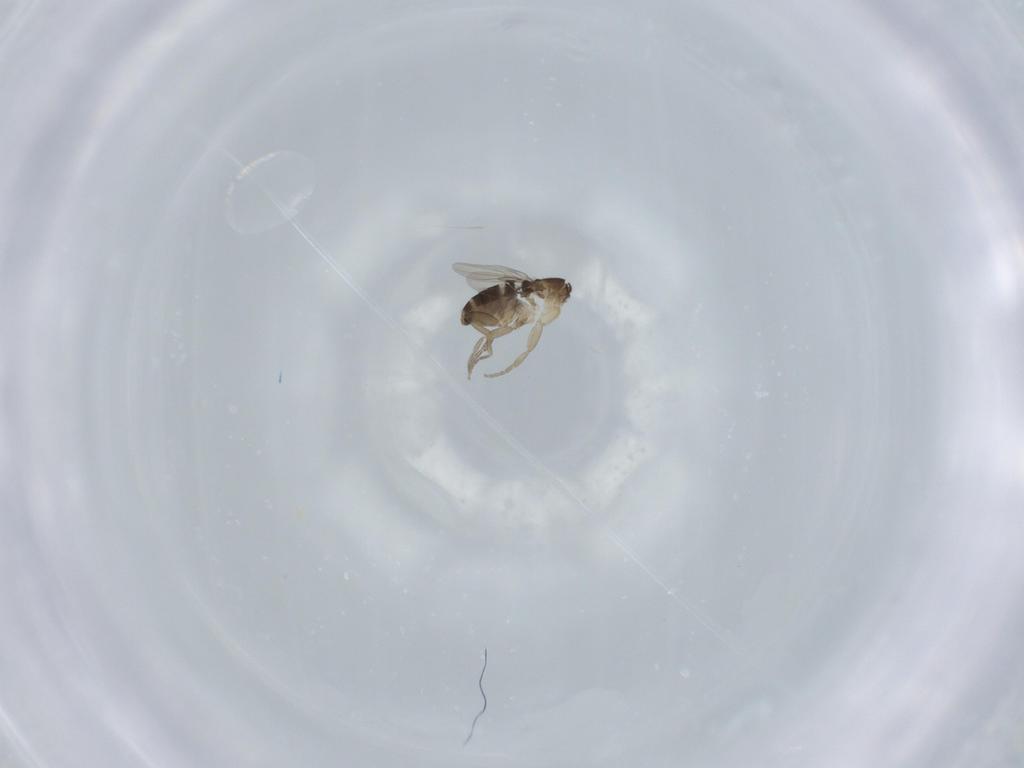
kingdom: Animalia
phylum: Arthropoda
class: Insecta
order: Diptera
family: Phoridae
